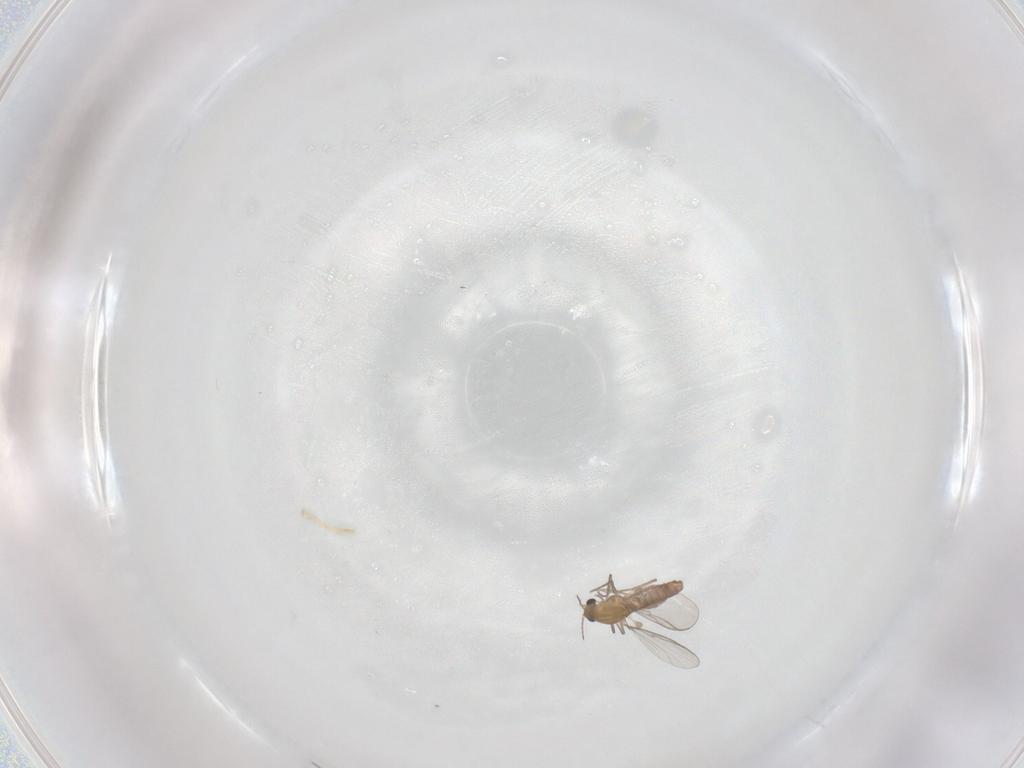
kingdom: Animalia
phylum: Arthropoda
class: Insecta
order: Diptera
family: Chironomidae
